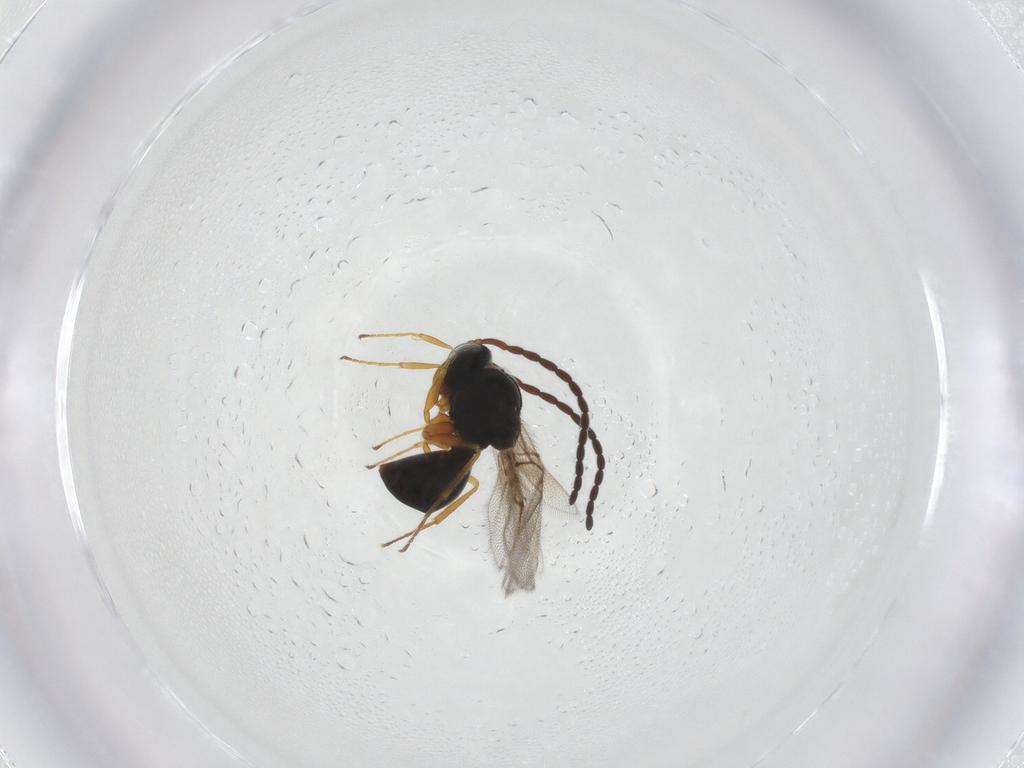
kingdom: Animalia
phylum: Arthropoda
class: Insecta
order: Hymenoptera
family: Figitidae
